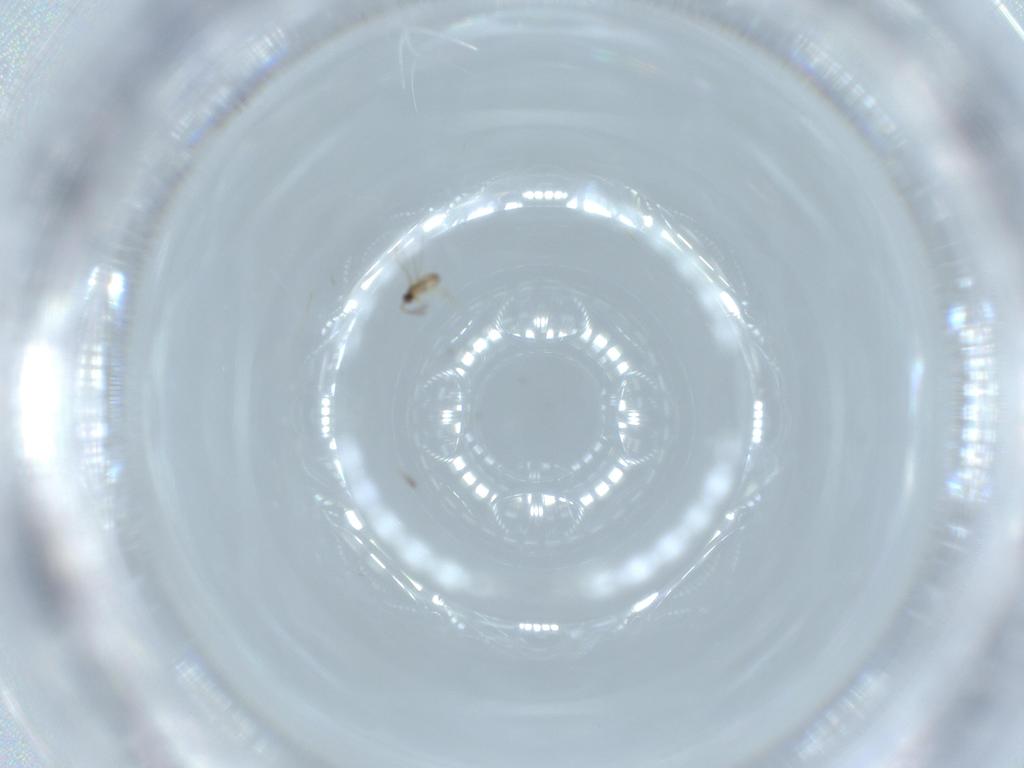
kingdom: Animalia
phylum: Arthropoda
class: Insecta
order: Hymenoptera
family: Mymaridae
